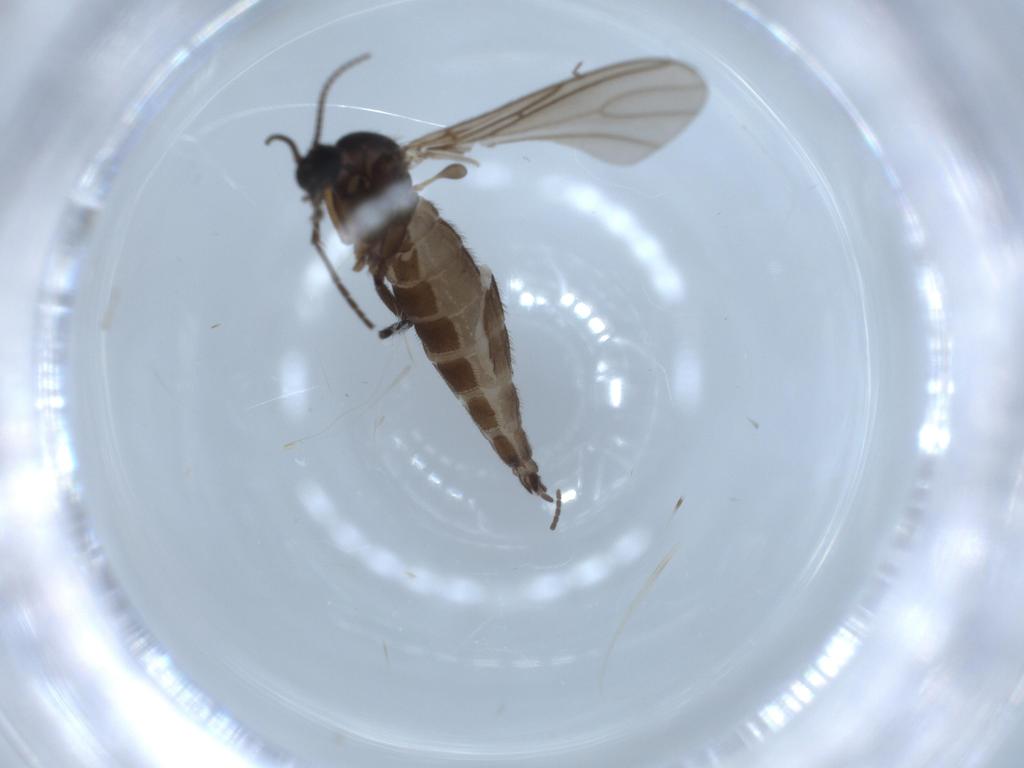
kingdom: Animalia
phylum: Arthropoda
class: Insecta
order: Diptera
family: Sciaridae
